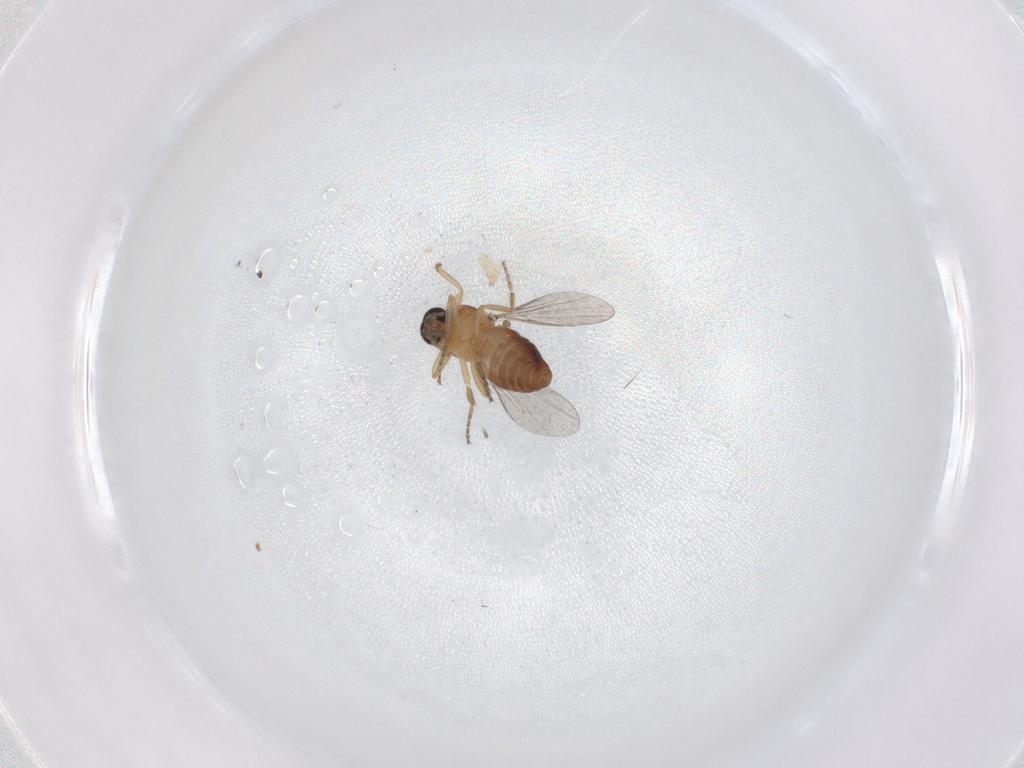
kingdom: Animalia
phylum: Arthropoda
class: Insecta
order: Diptera
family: Ceratopogonidae
